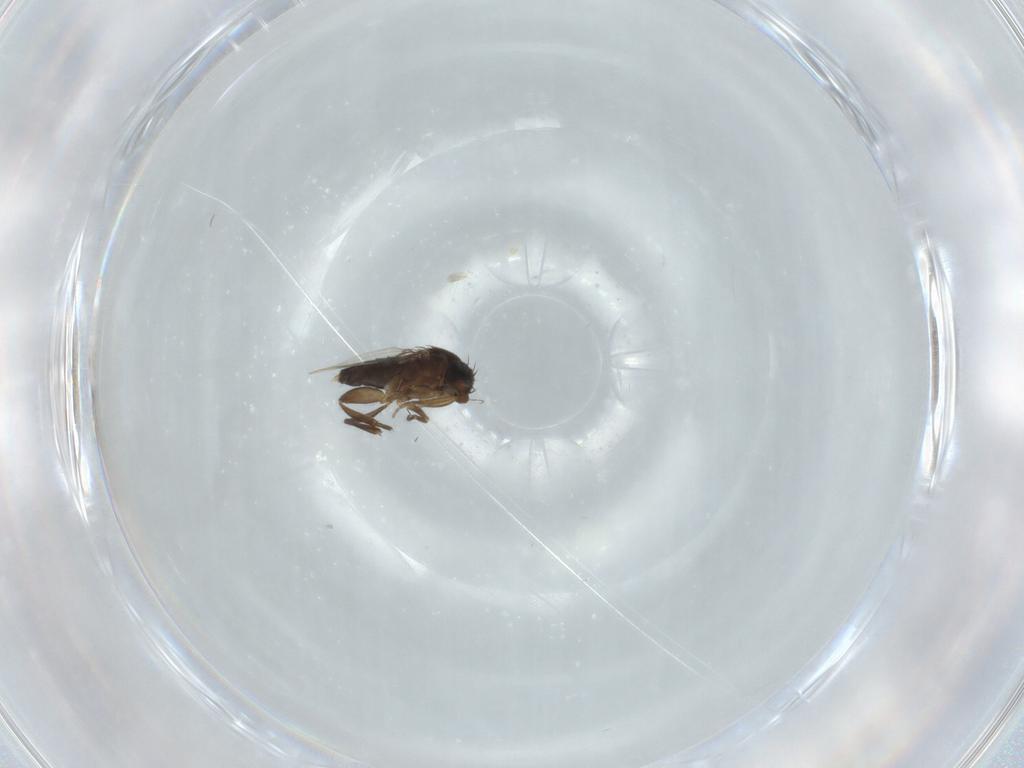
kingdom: Animalia
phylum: Arthropoda
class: Insecta
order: Diptera
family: Phoridae
